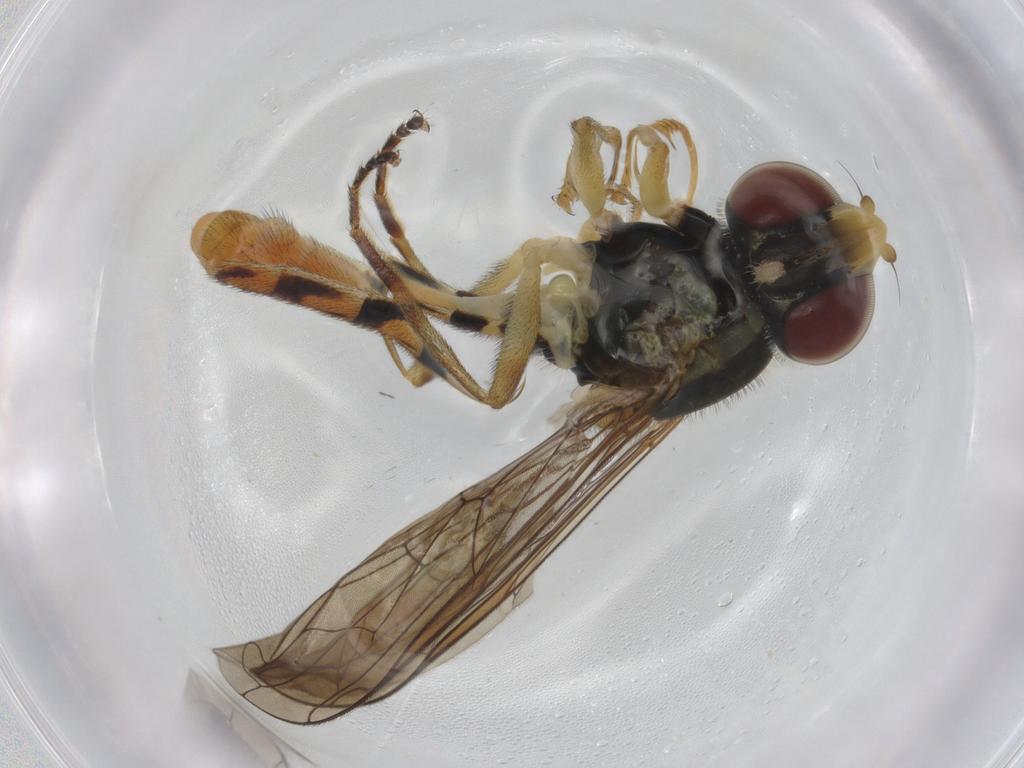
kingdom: Animalia
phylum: Arthropoda
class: Insecta
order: Diptera
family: Syrphidae
